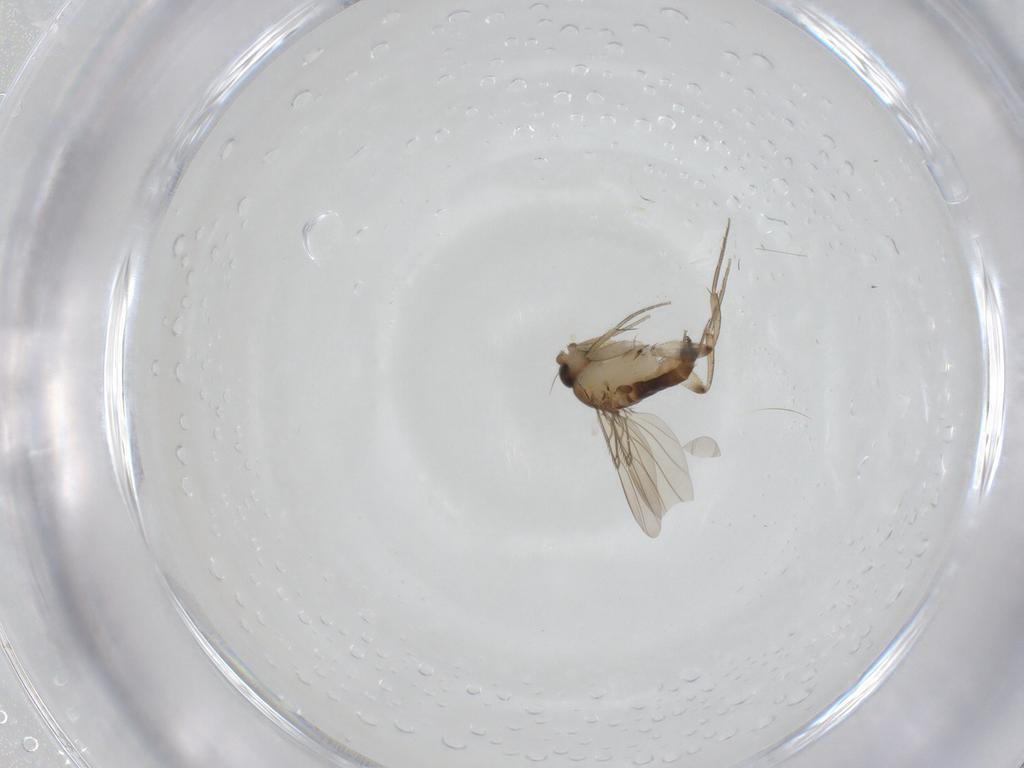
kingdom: Animalia
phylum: Arthropoda
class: Insecta
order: Diptera
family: Phoridae
